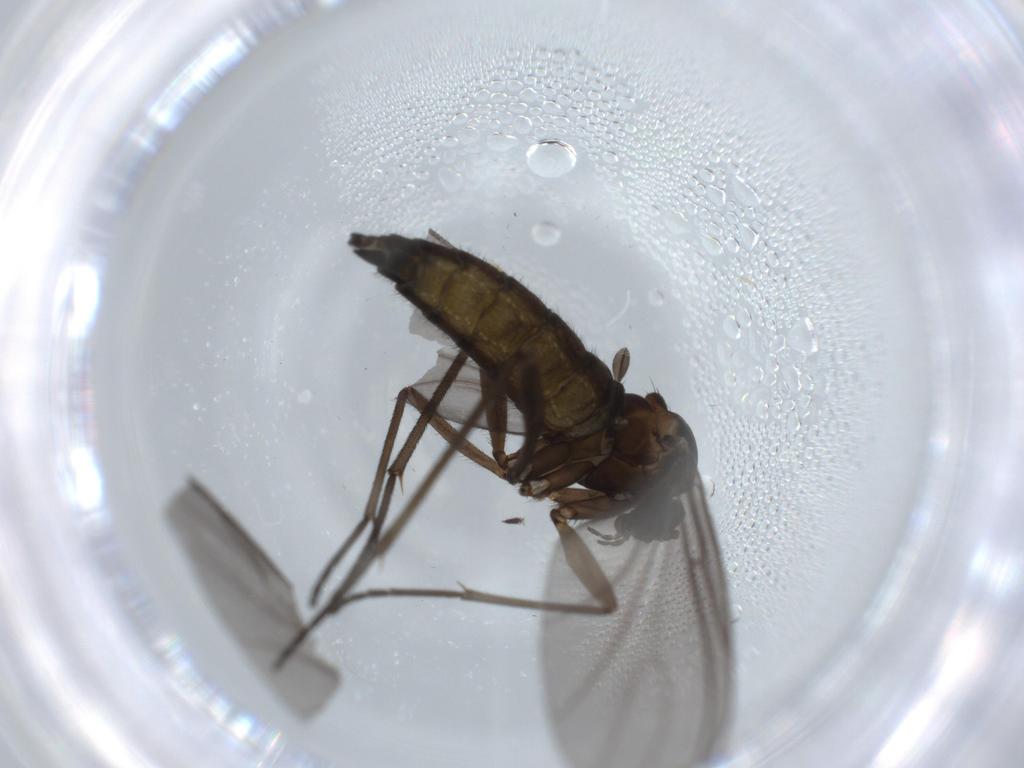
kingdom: Animalia
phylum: Arthropoda
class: Insecta
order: Diptera
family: Sciaridae
